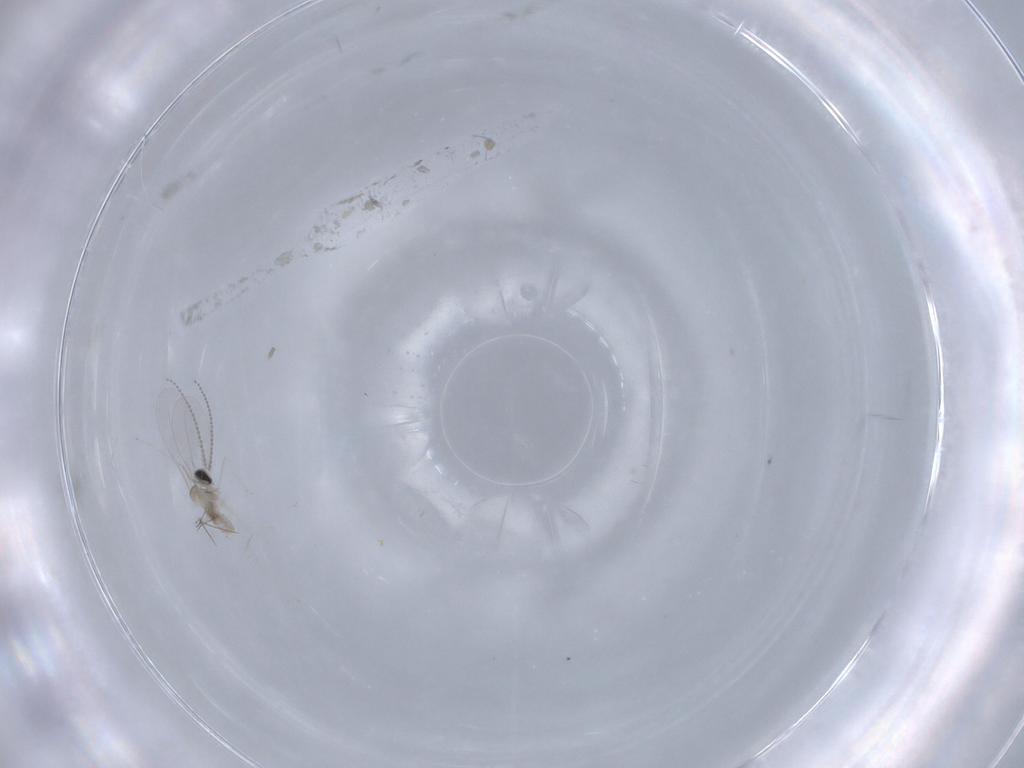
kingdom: Animalia
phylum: Arthropoda
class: Insecta
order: Diptera
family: Cecidomyiidae
